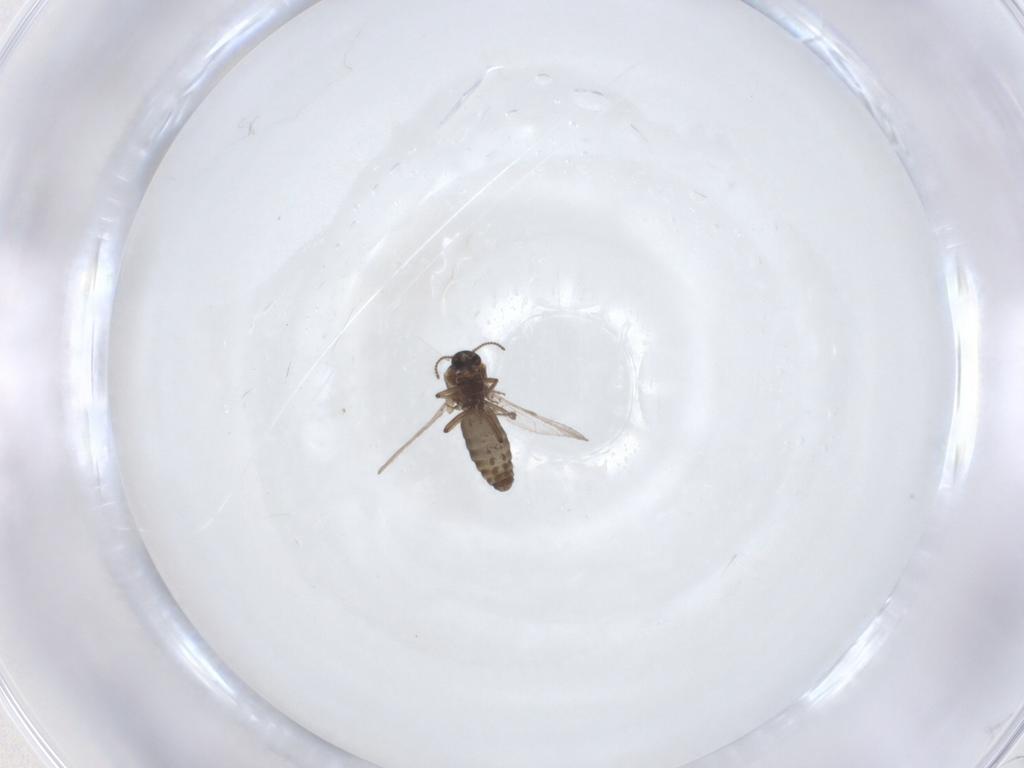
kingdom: Animalia
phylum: Arthropoda
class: Insecta
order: Diptera
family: Ceratopogonidae
